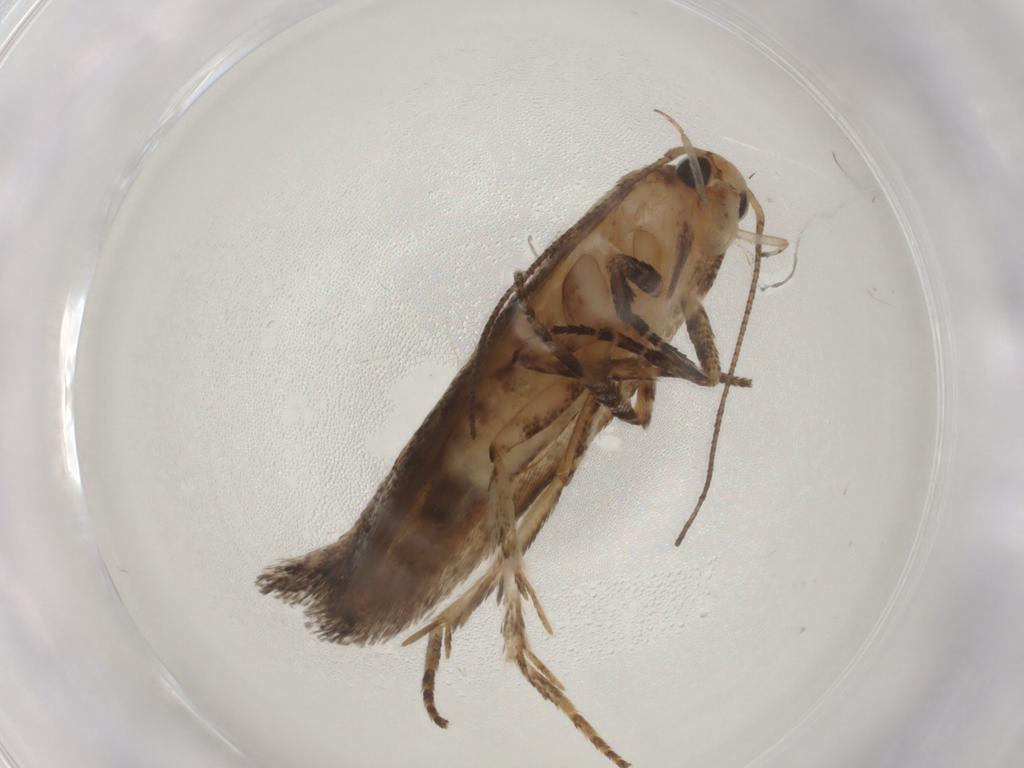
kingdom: Animalia
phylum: Arthropoda
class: Insecta
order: Lepidoptera
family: Gelechiidae
